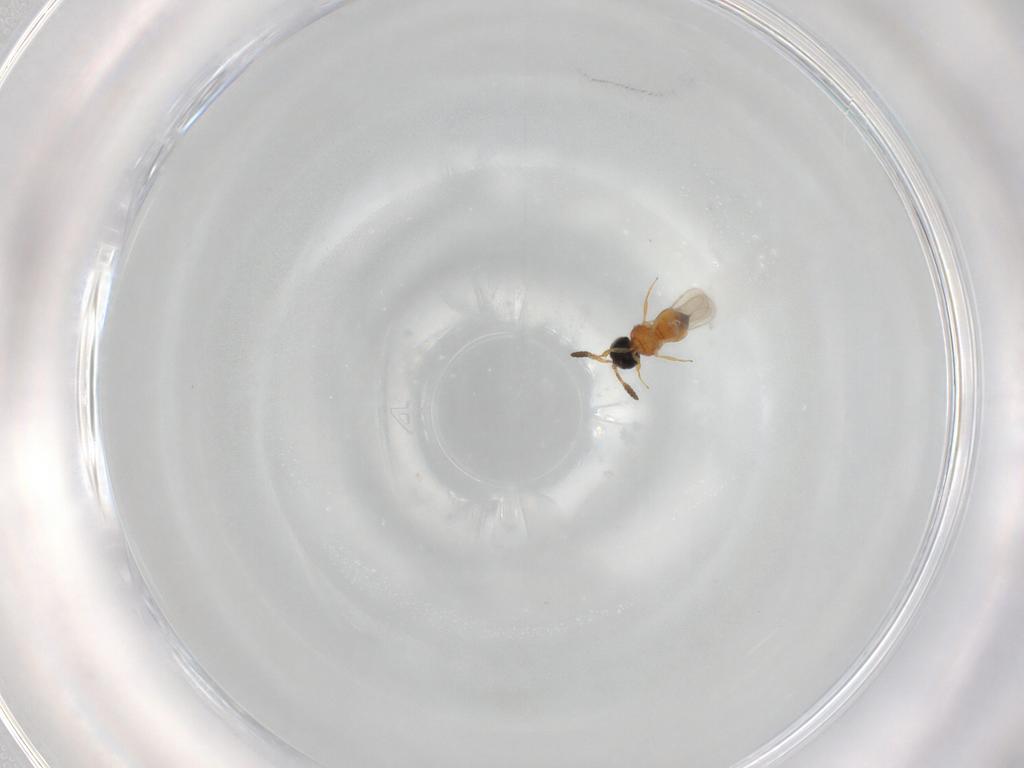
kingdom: Animalia
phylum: Arthropoda
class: Insecta
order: Hymenoptera
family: Scelionidae
